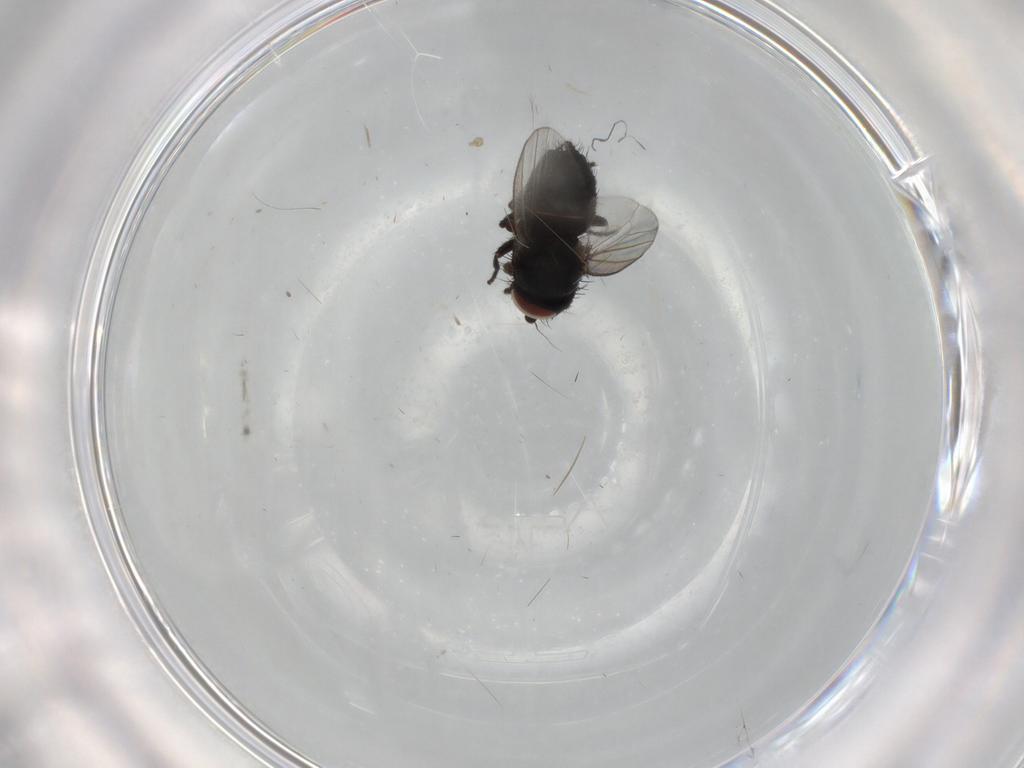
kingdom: Animalia
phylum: Arthropoda
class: Insecta
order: Diptera
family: Milichiidae
